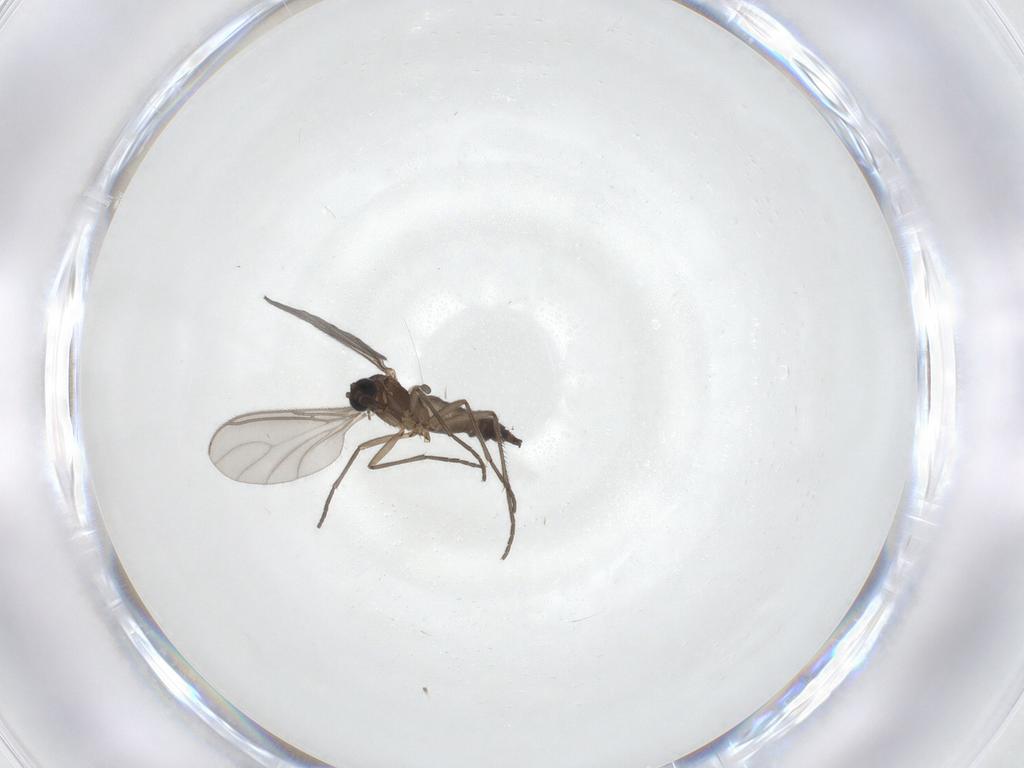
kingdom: Animalia
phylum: Arthropoda
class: Insecta
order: Diptera
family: Sciaridae
